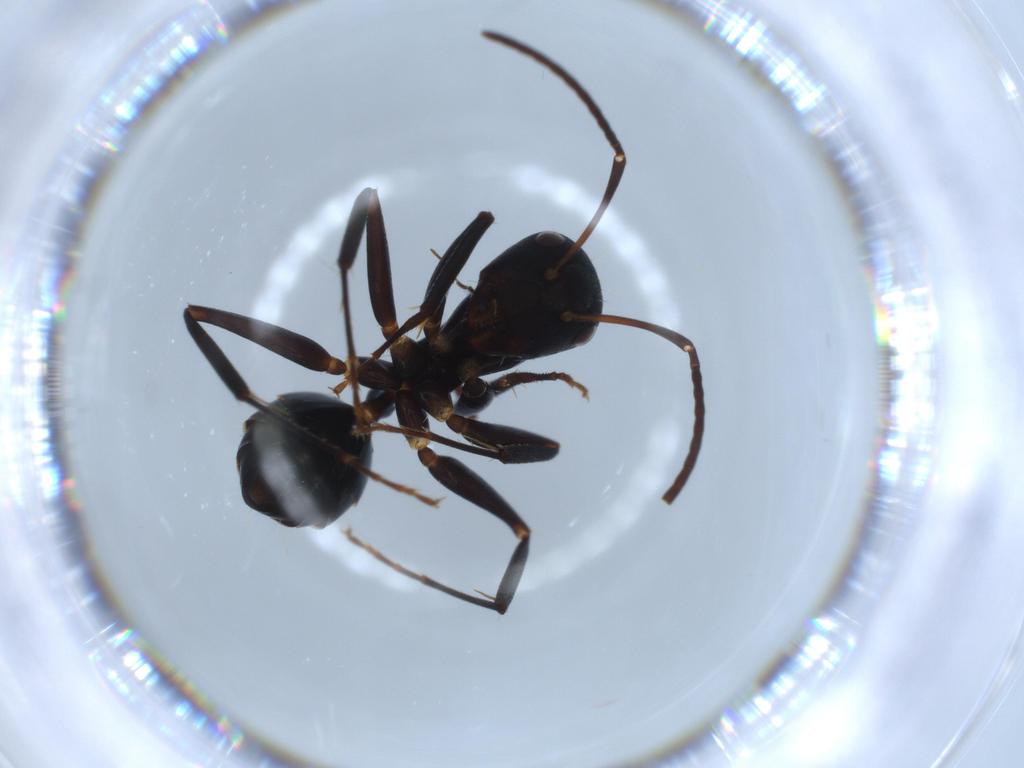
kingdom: Animalia
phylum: Arthropoda
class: Insecta
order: Hymenoptera
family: Formicidae
